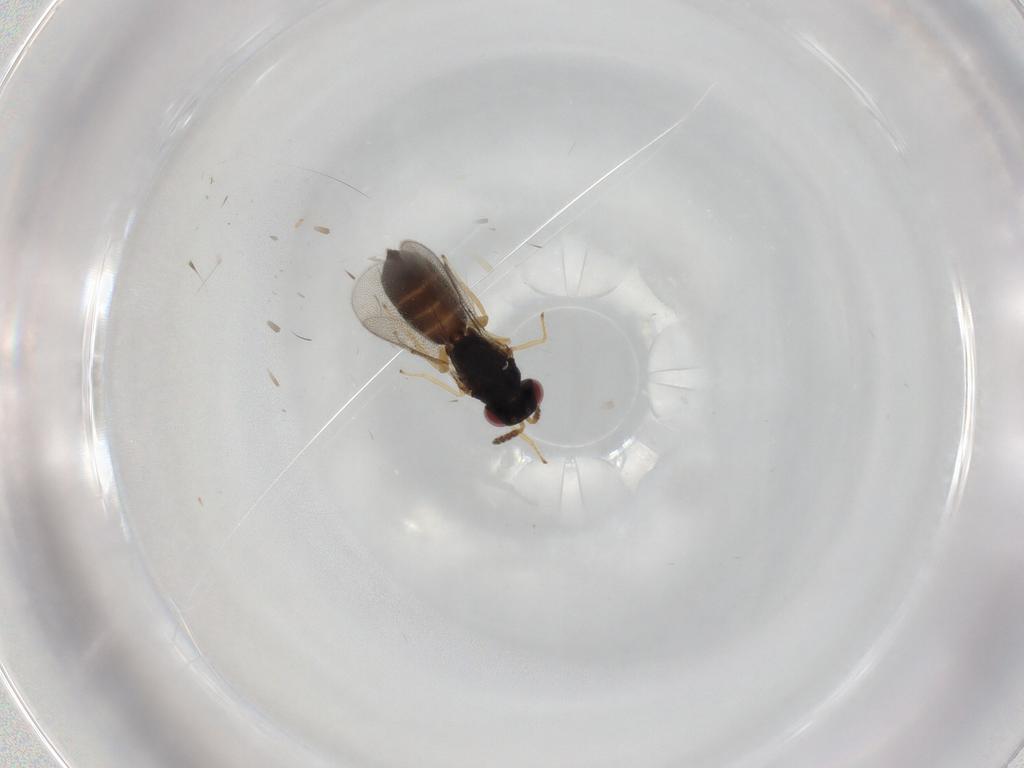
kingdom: Animalia
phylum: Arthropoda
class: Insecta
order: Hymenoptera
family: Eulophidae
